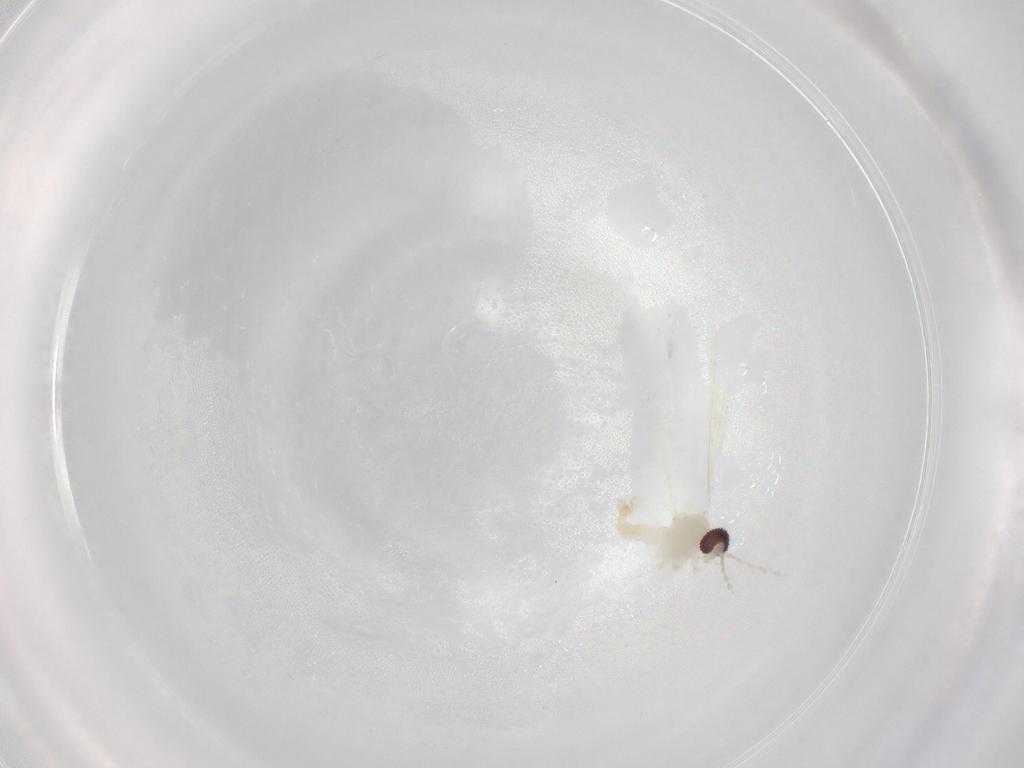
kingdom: Animalia
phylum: Arthropoda
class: Insecta
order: Diptera
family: Cecidomyiidae
